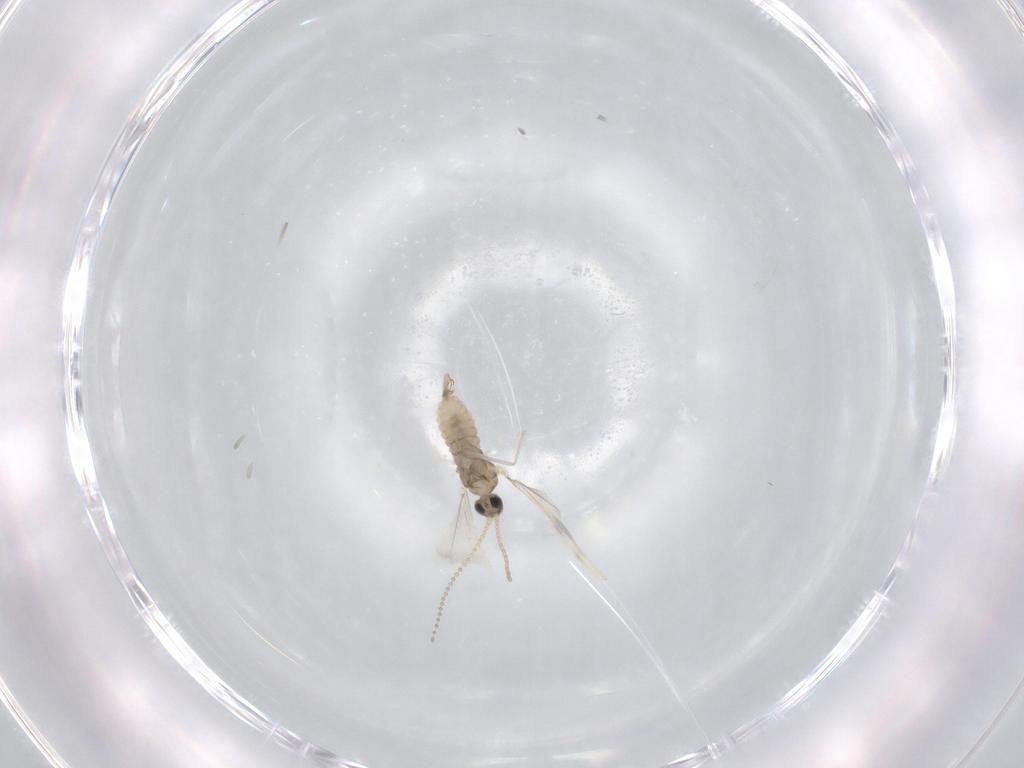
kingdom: Animalia
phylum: Arthropoda
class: Insecta
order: Diptera
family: Cecidomyiidae
